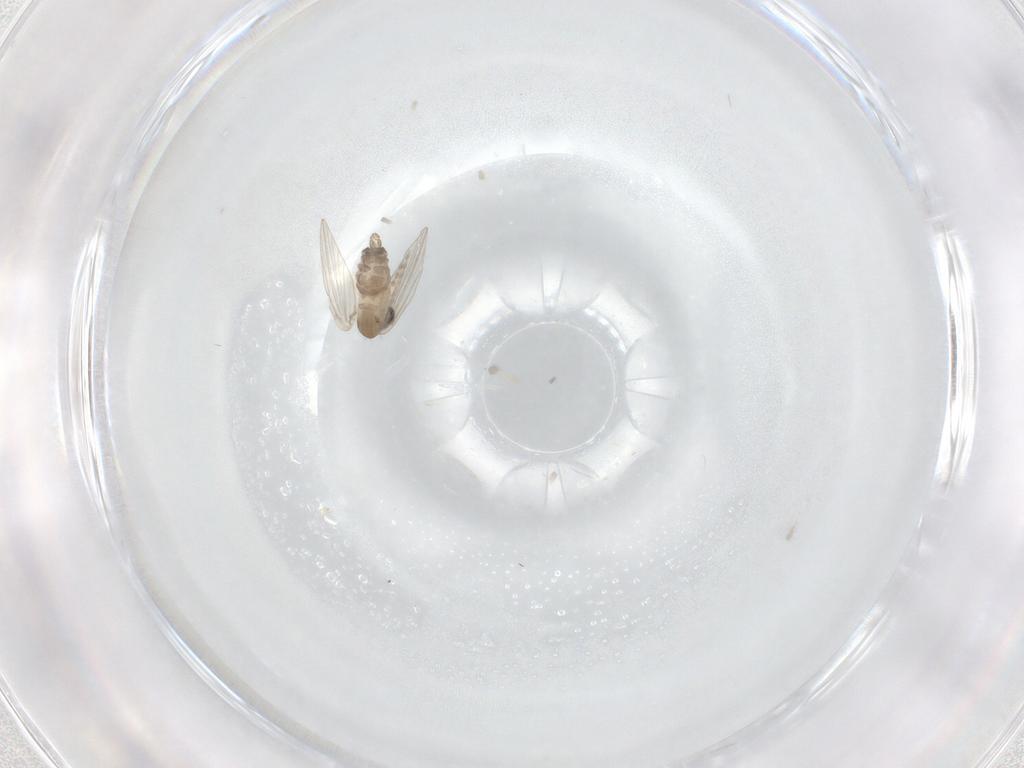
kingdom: Animalia
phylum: Arthropoda
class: Insecta
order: Diptera
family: Psychodidae
